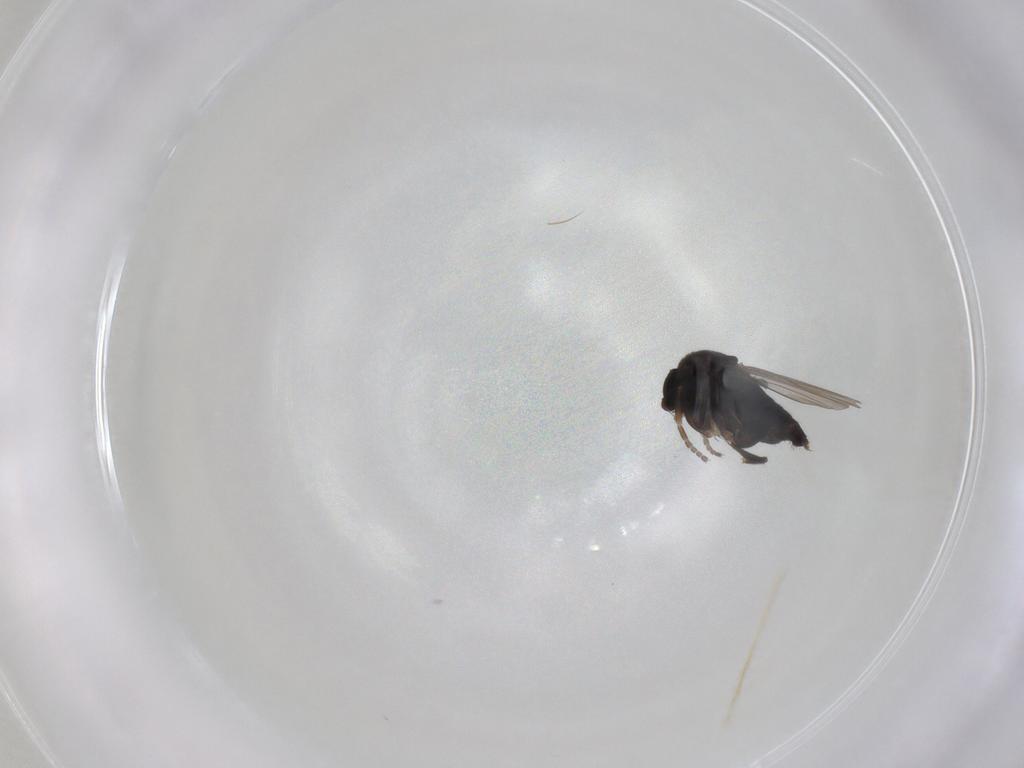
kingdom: Animalia
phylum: Arthropoda
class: Insecta
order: Diptera
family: Phoridae
